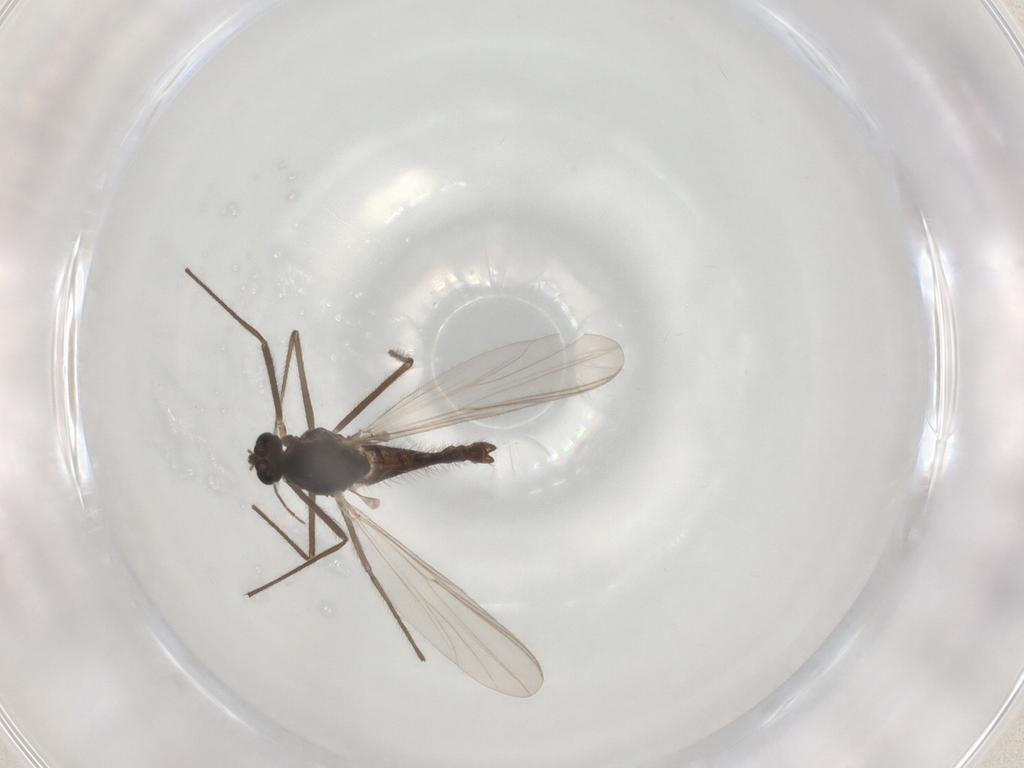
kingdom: Animalia
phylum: Arthropoda
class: Insecta
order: Diptera
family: Chironomidae
